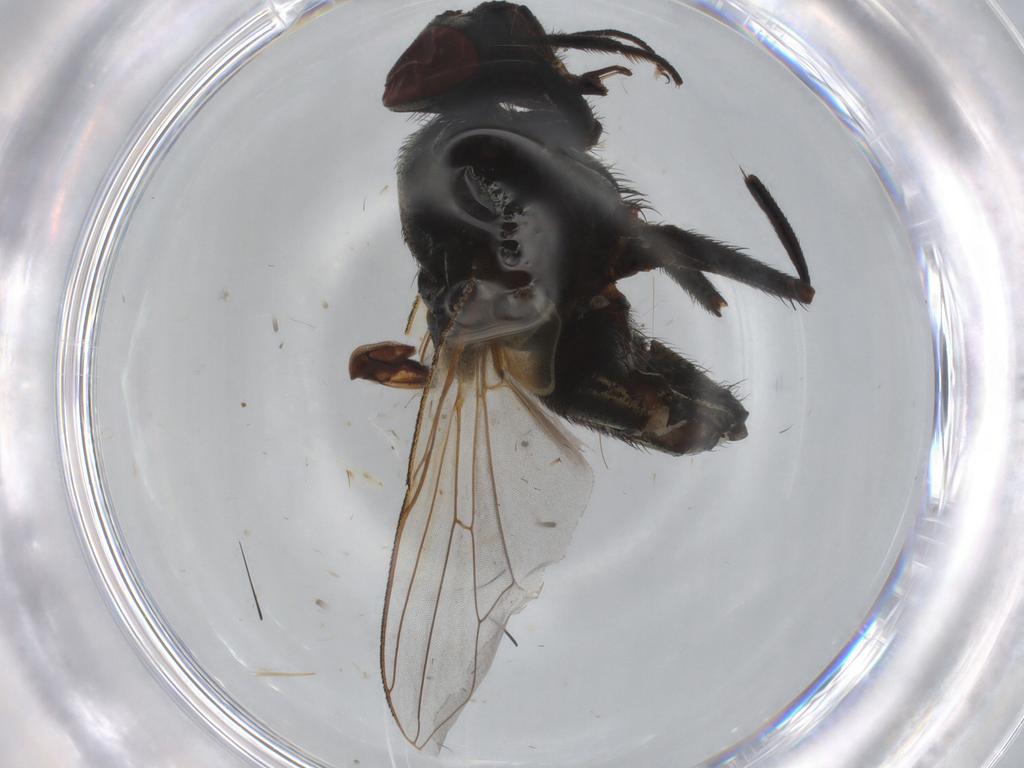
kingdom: Animalia
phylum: Arthropoda
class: Insecta
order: Diptera
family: Muscidae
